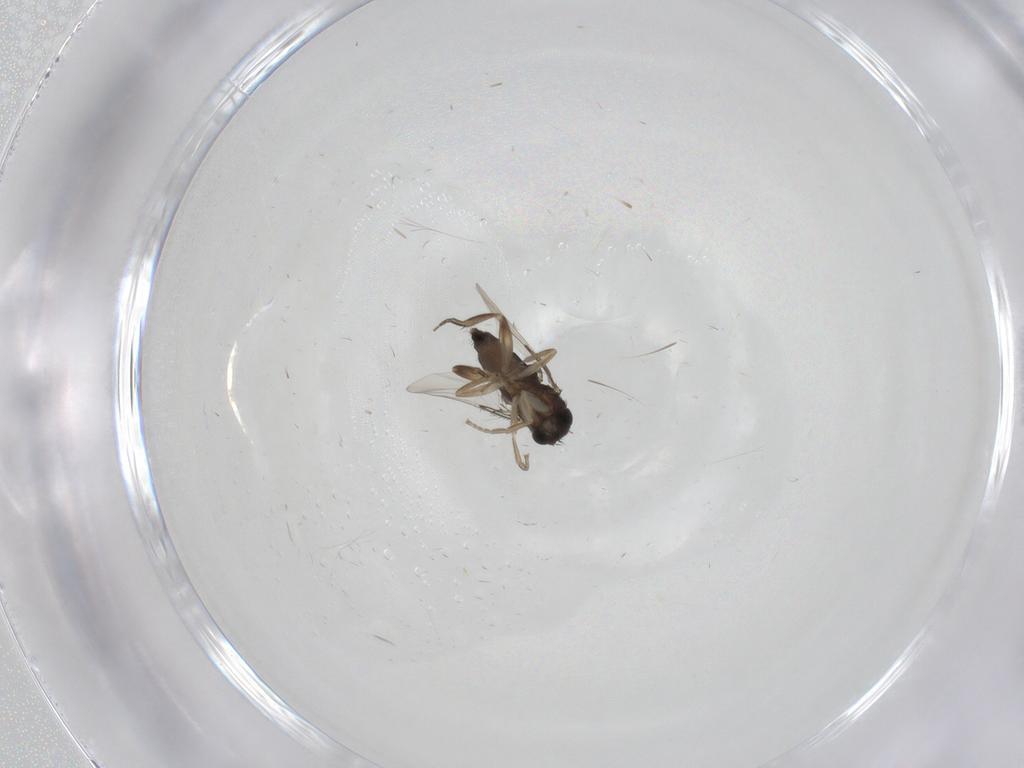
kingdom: Animalia
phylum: Arthropoda
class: Insecta
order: Diptera
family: Phoridae
